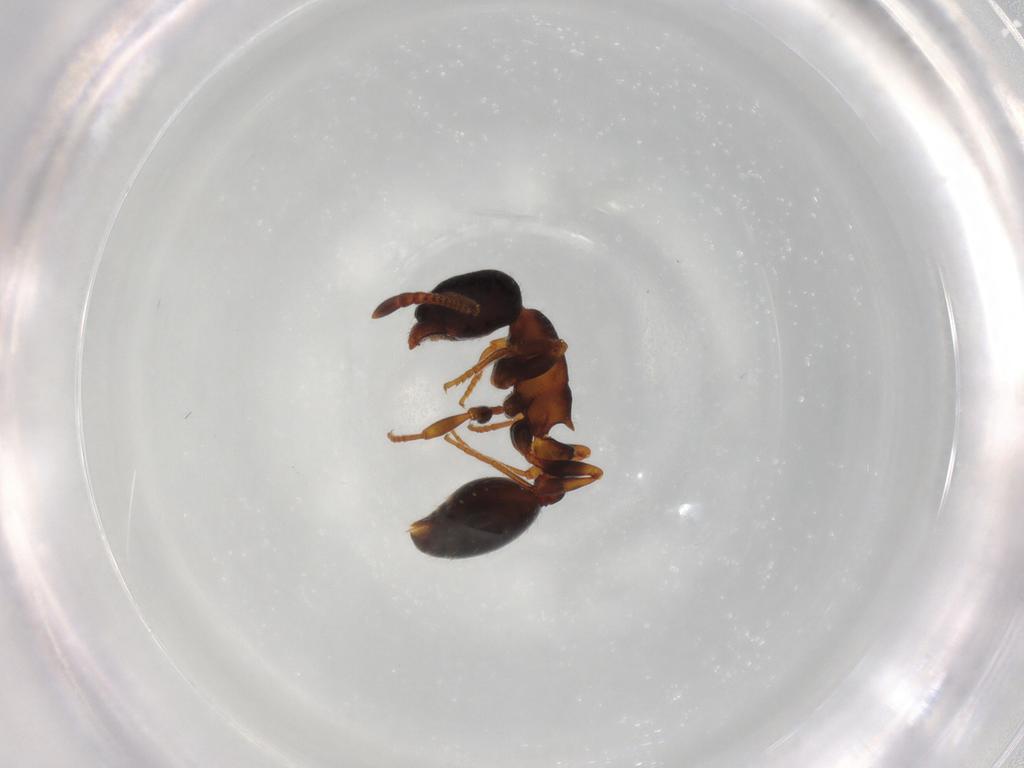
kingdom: Animalia
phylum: Arthropoda
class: Insecta
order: Hymenoptera
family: Formicidae
